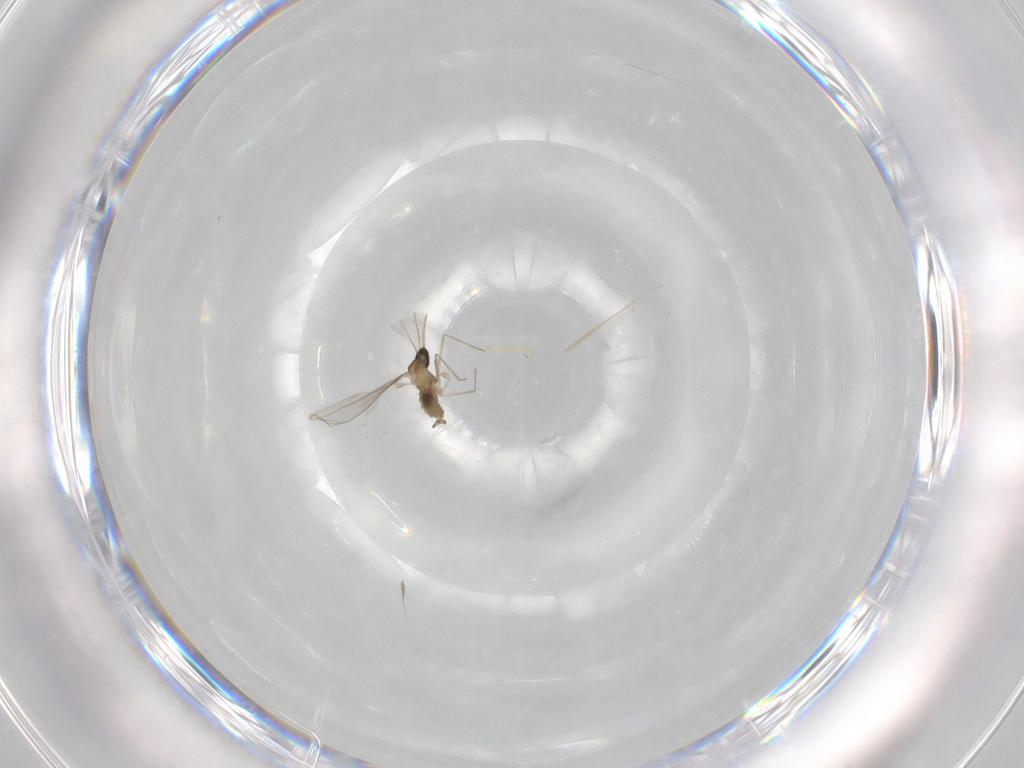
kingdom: Animalia
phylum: Arthropoda
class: Insecta
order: Diptera
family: Cecidomyiidae
